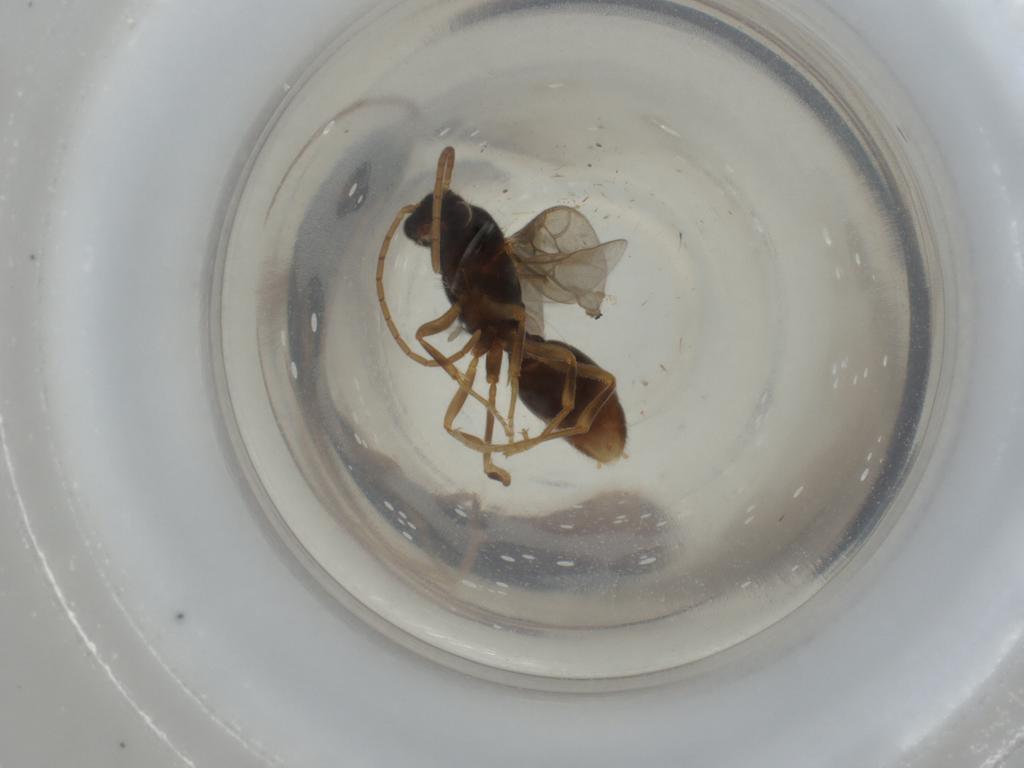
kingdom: Animalia
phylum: Arthropoda
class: Insecta
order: Hymenoptera
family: Formicidae
